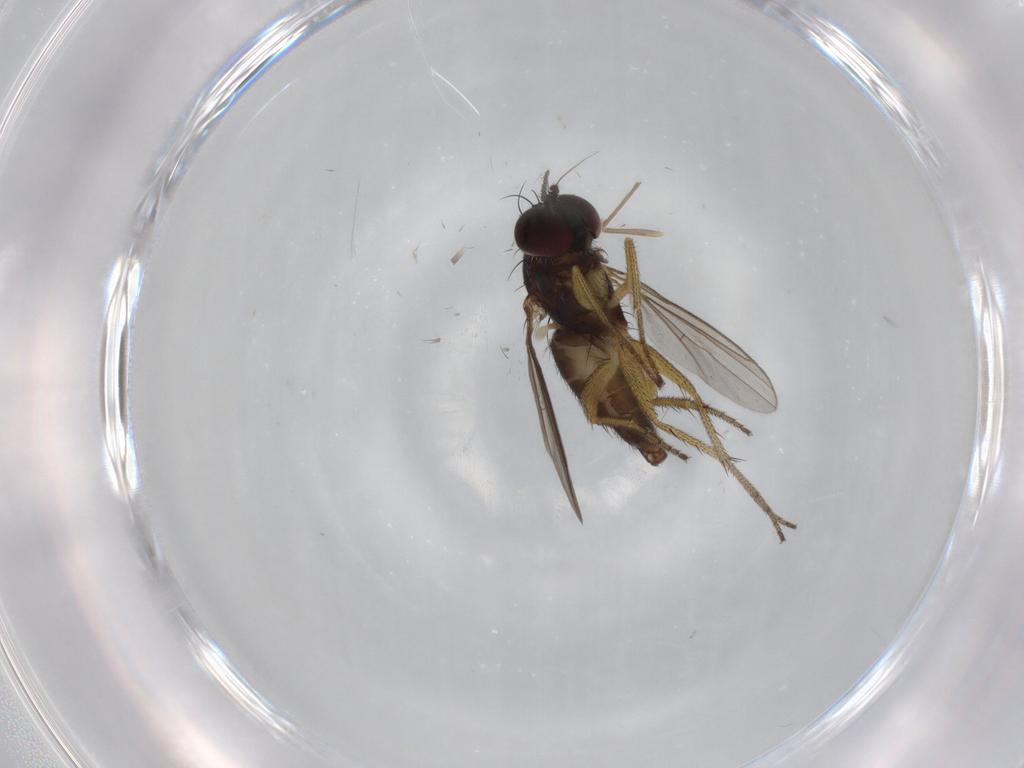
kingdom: Animalia
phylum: Arthropoda
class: Insecta
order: Diptera
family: Dolichopodidae
